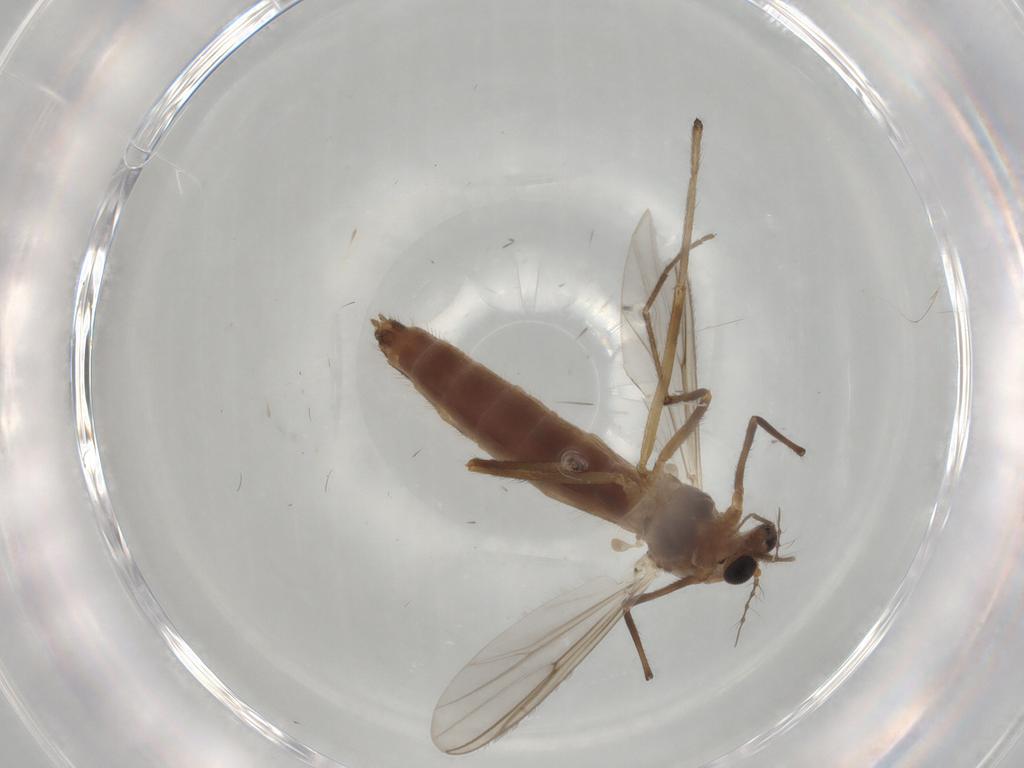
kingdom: Animalia
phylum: Arthropoda
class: Insecta
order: Diptera
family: Chironomidae
